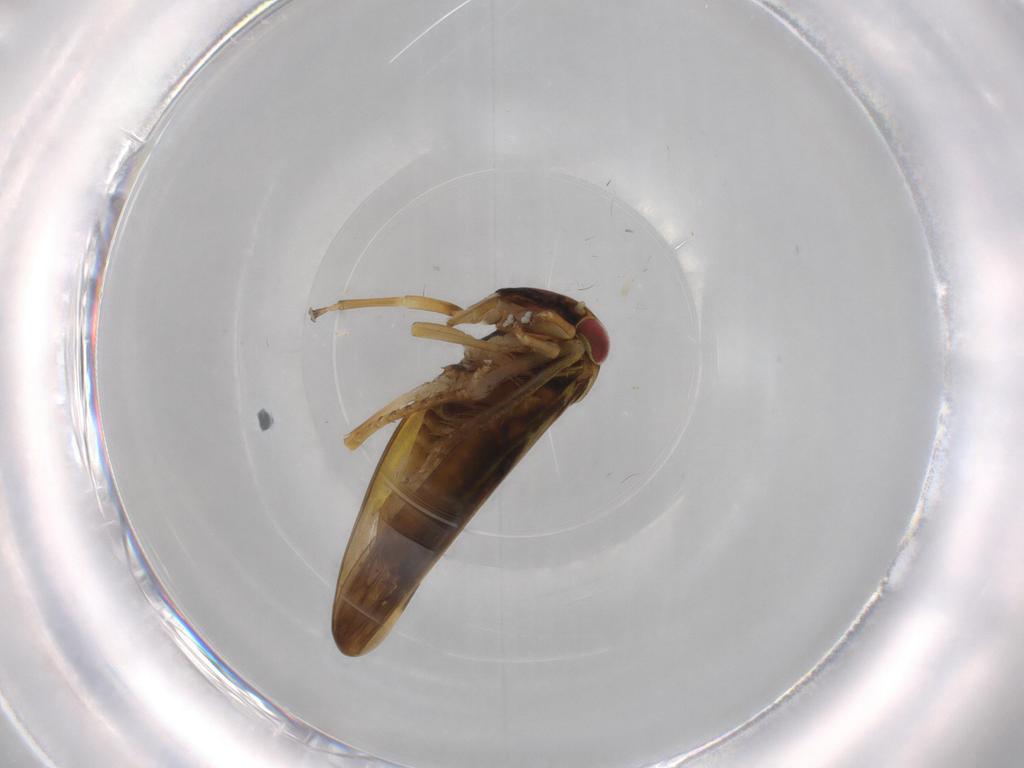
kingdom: Animalia
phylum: Arthropoda
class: Insecta
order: Hemiptera
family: Cicadellidae
